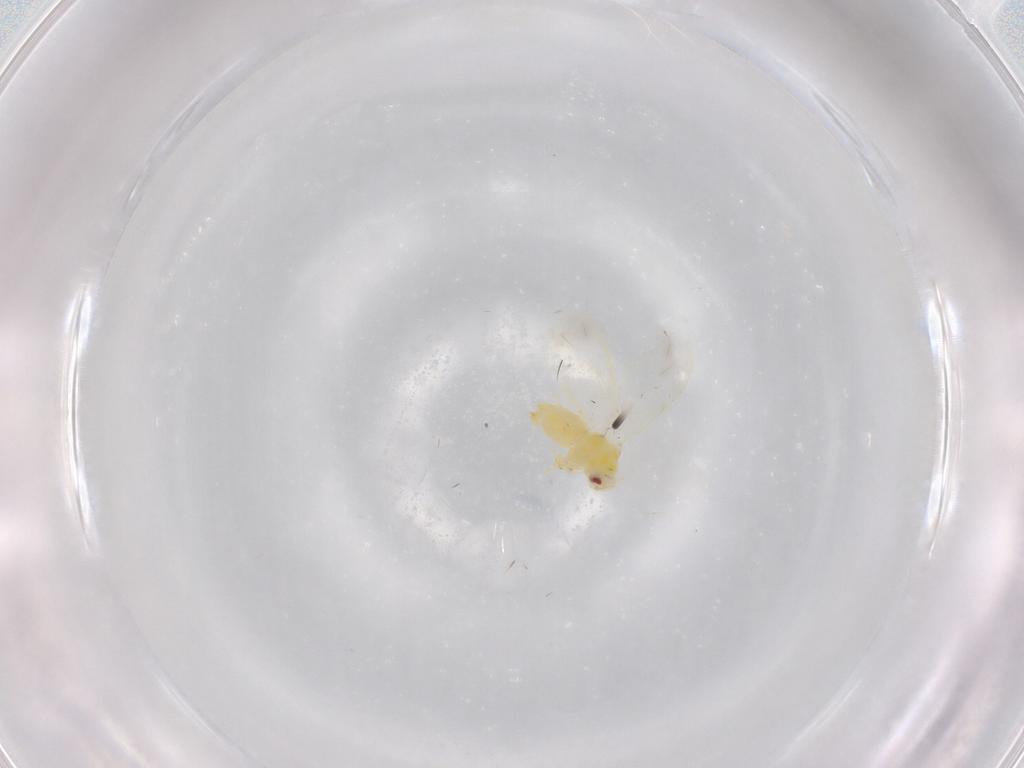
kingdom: Animalia
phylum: Arthropoda
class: Insecta
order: Hemiptera
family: Aleyrodidae
